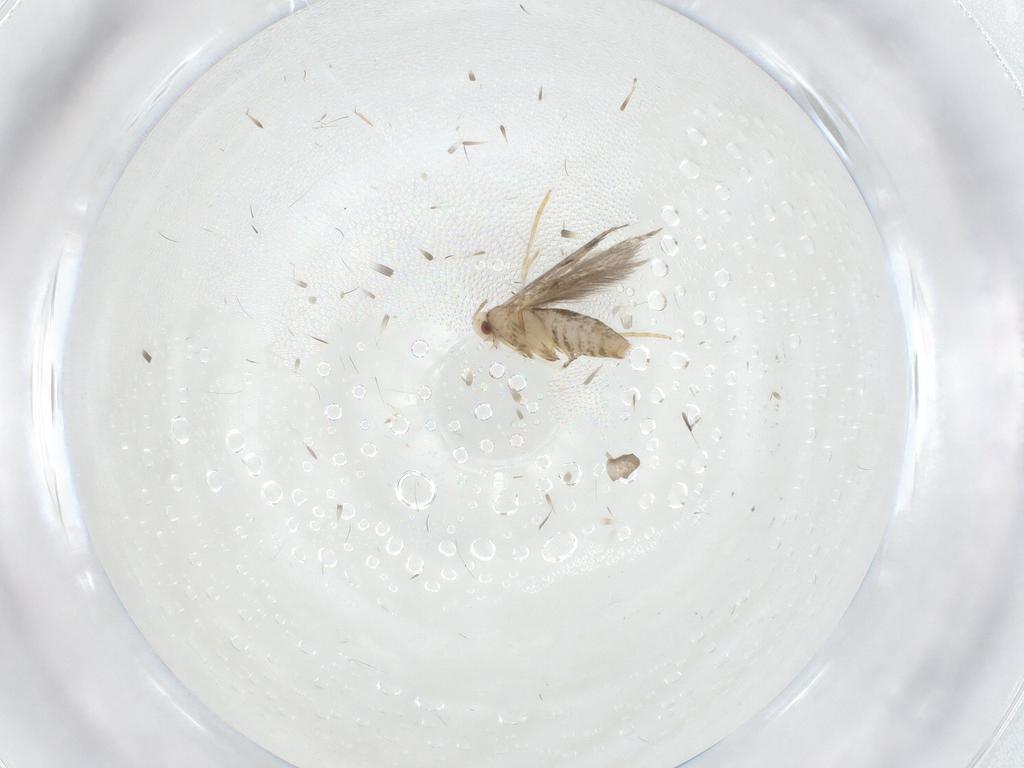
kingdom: Animalia
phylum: Arthropoda
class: Insecta
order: Lepidoptera
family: Gracillariidae
